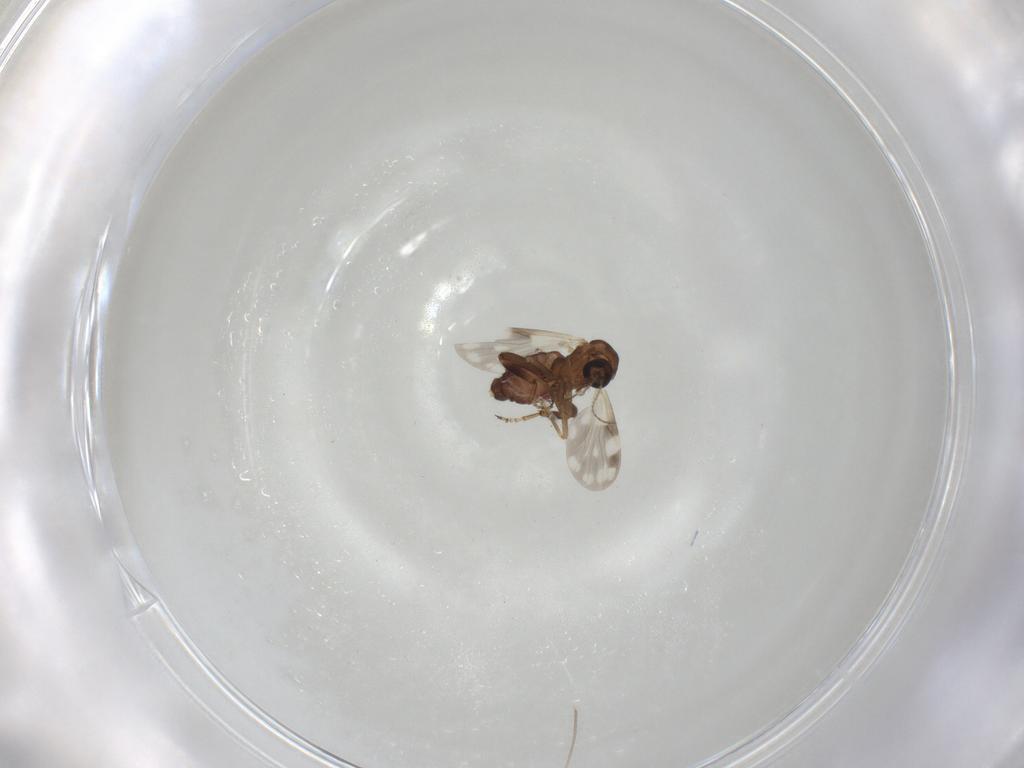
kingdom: Animalia
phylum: Arthropoda
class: Insecta
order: Diptera
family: Ceratopogonidae
